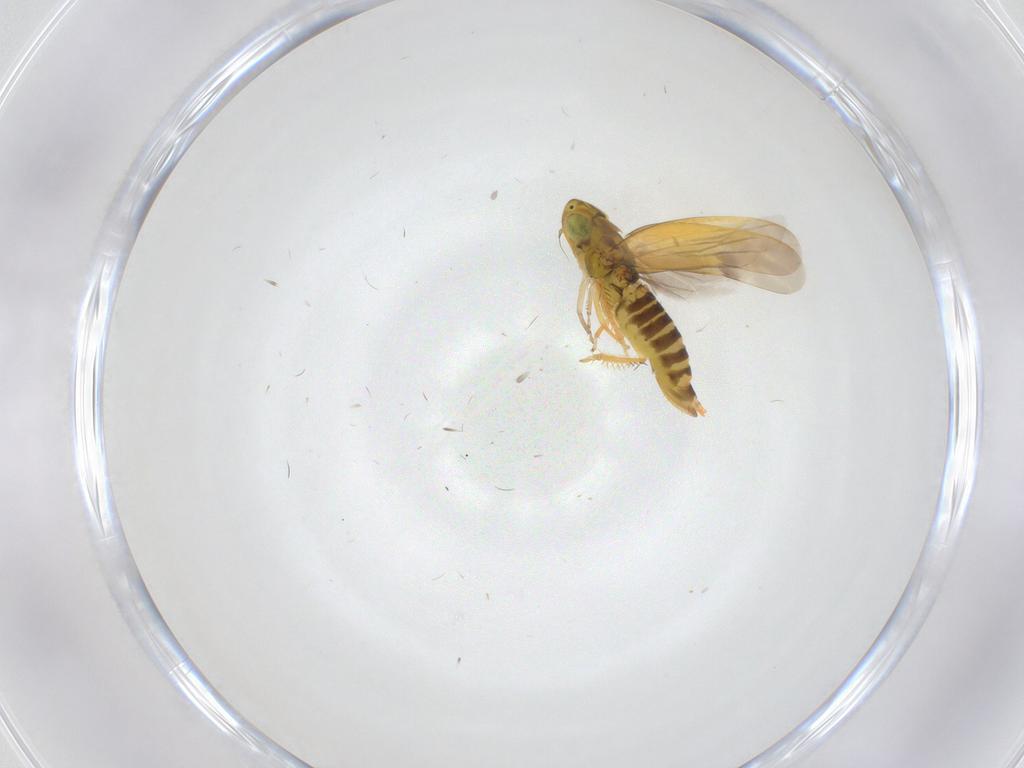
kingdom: Animalia
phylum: Arthropoda
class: Insecta
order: Hemiptera
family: Cicadellidae
